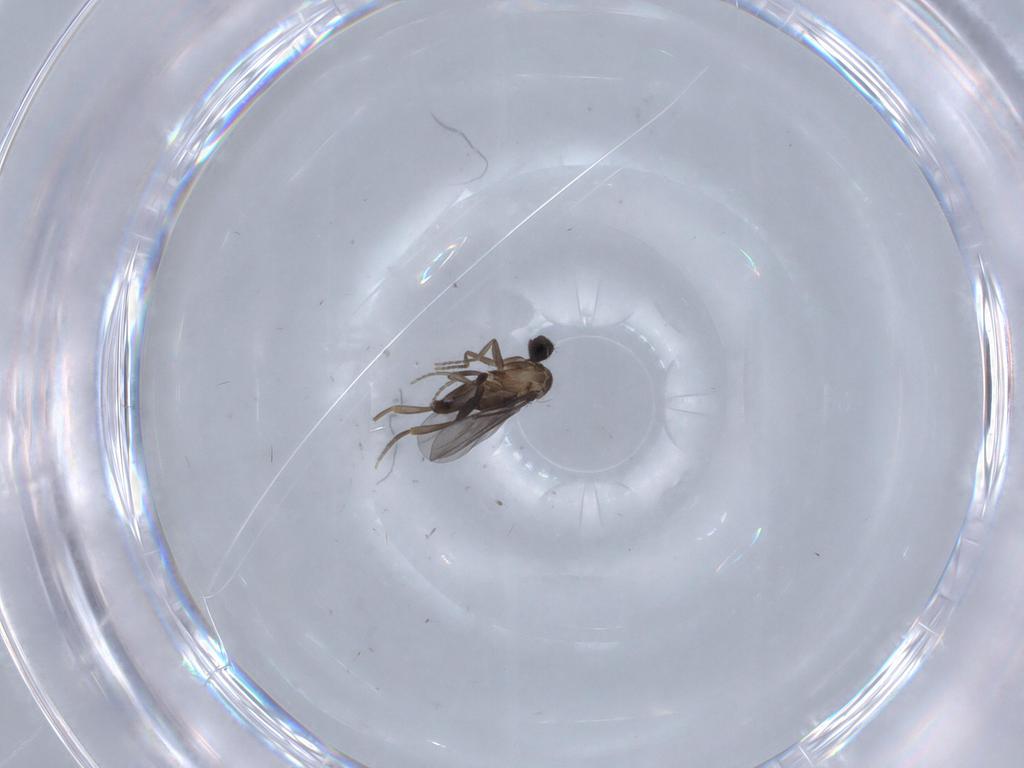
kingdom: Animalia
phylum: Arthropoda
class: Insecta
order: Diptera
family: Phoridae
